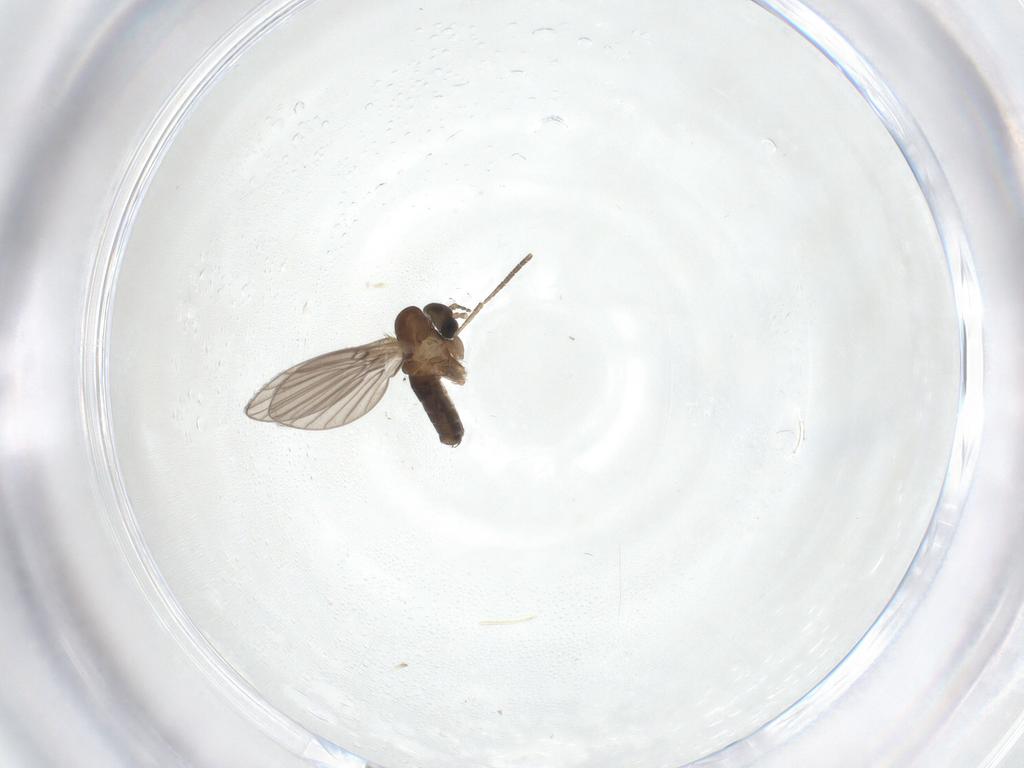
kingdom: Animalia
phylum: Arthropoda
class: Insecta
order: Diptera
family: Psychodidae
